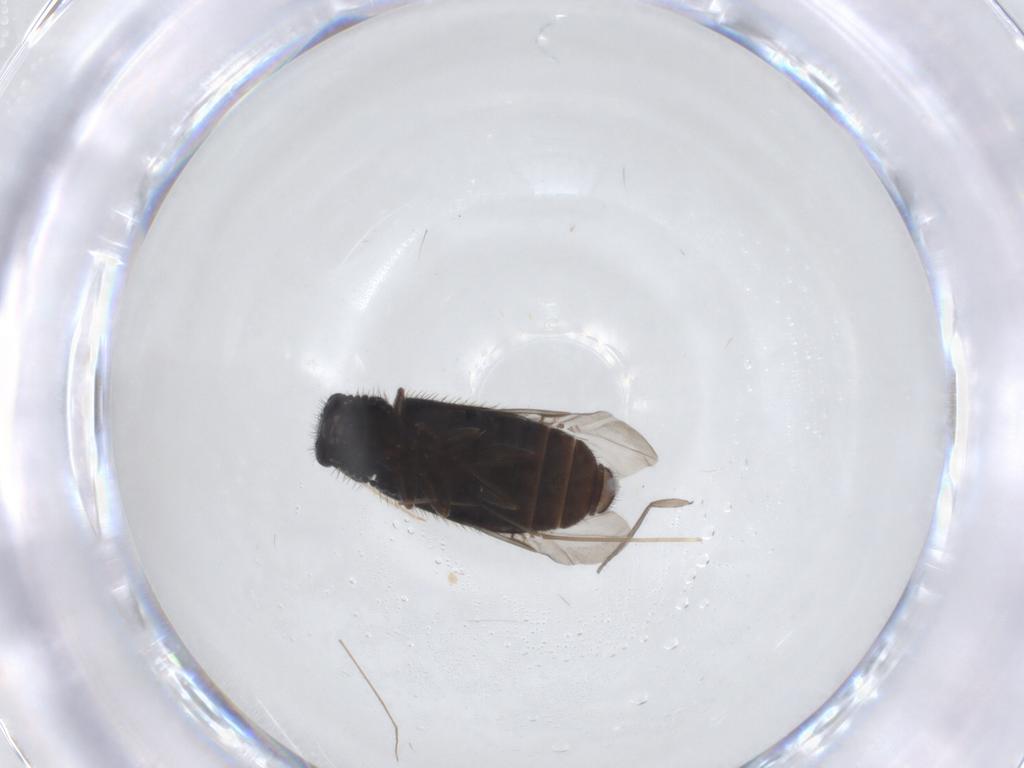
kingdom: Animalia
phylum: Arthropoda
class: Insecta
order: Coleoptera
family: Melyridae
